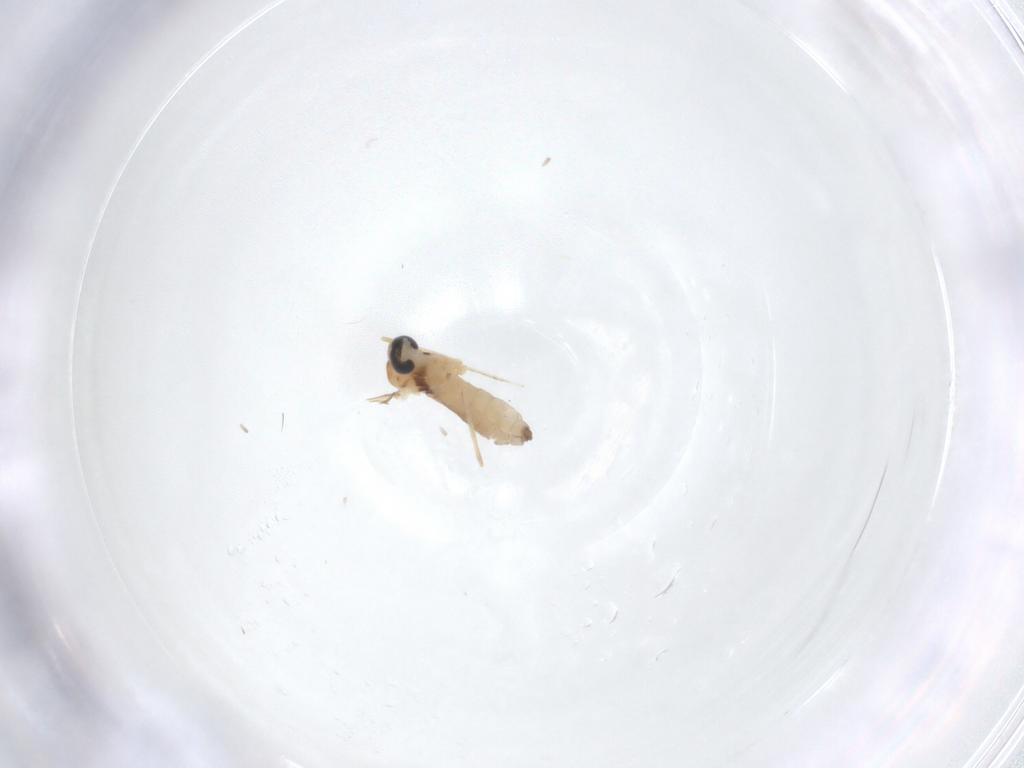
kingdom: Animalia
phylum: Arthropoda
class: Insecta
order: Diptera
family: Cecidomyiidae
